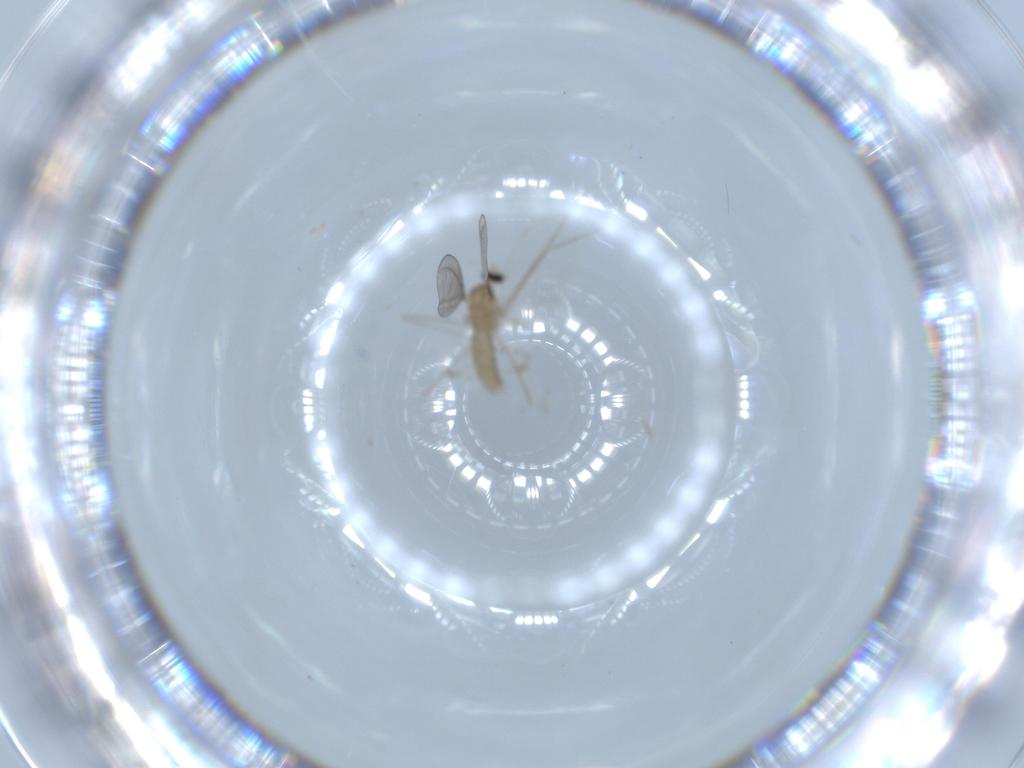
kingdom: Animalia
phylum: Arthropoda
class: Insecta
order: Diptera
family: Cecidomyiidae
